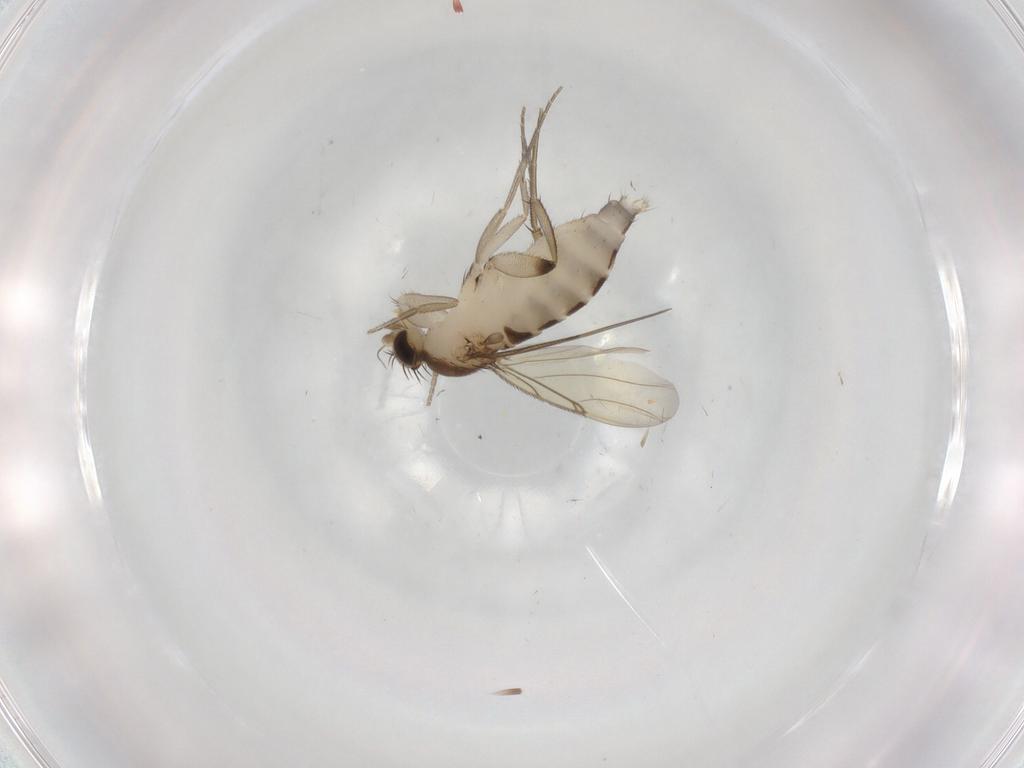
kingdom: Animalia
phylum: Arthropoda
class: Insecta
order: Diptera
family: Phoridae
